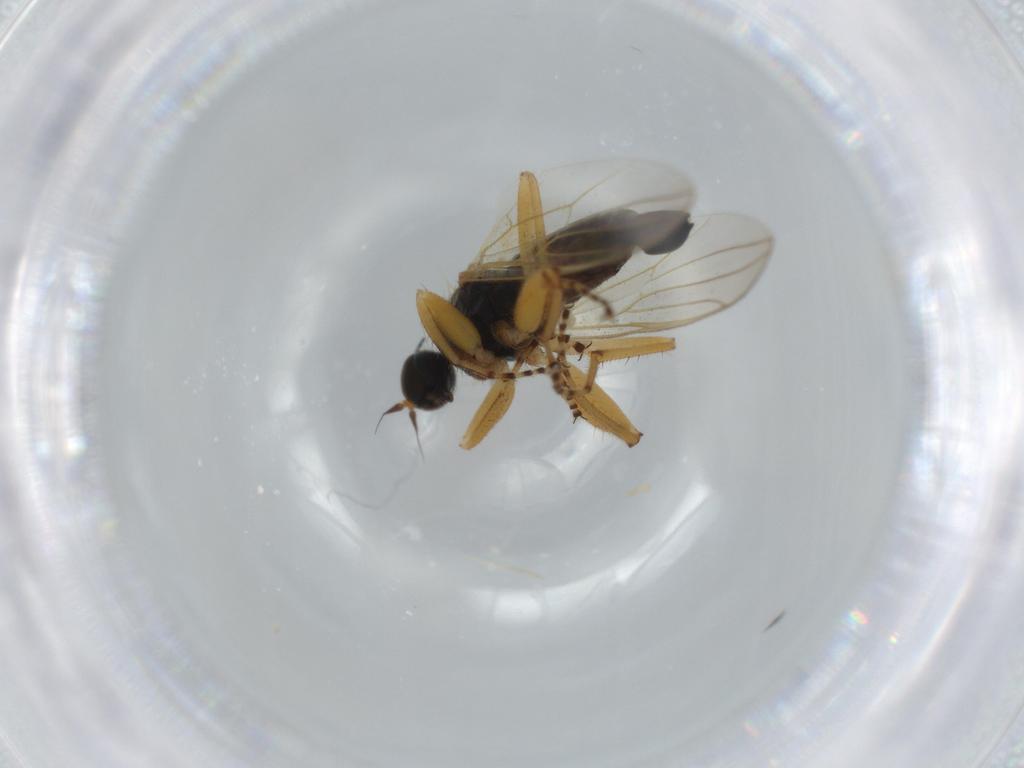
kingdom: Animalia
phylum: Arthropoda
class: Insecta
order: Diptera
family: Hybotidae
